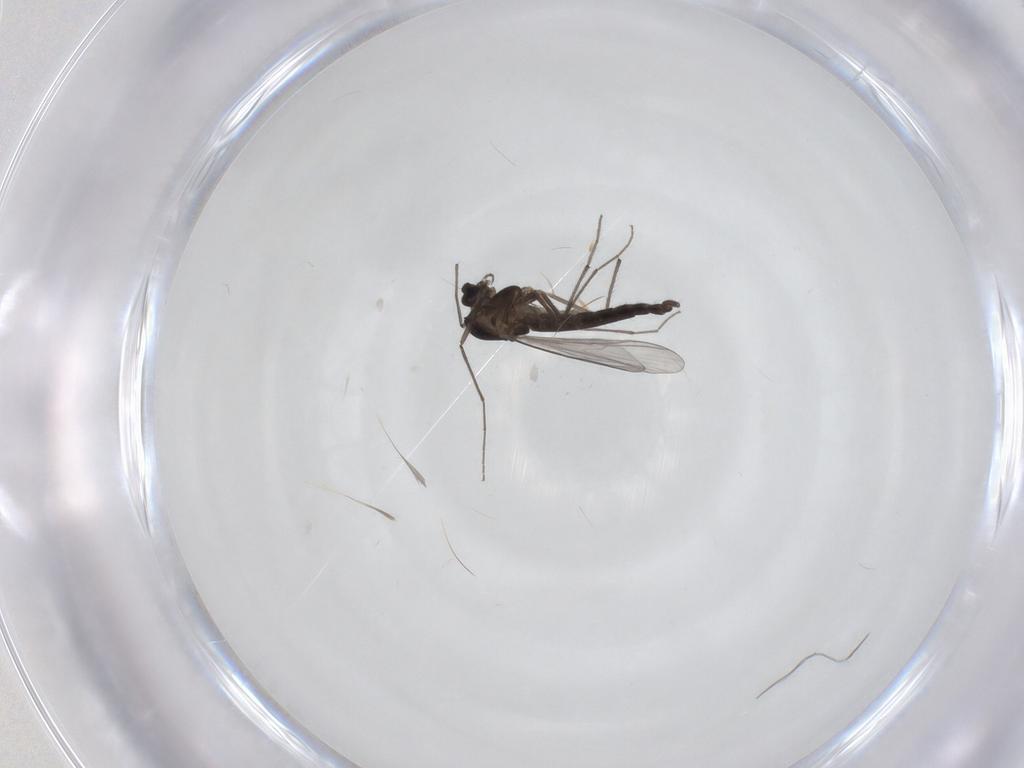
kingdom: Animalia
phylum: Arthropoda
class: Insecta
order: Diptera
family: Chironomidae
